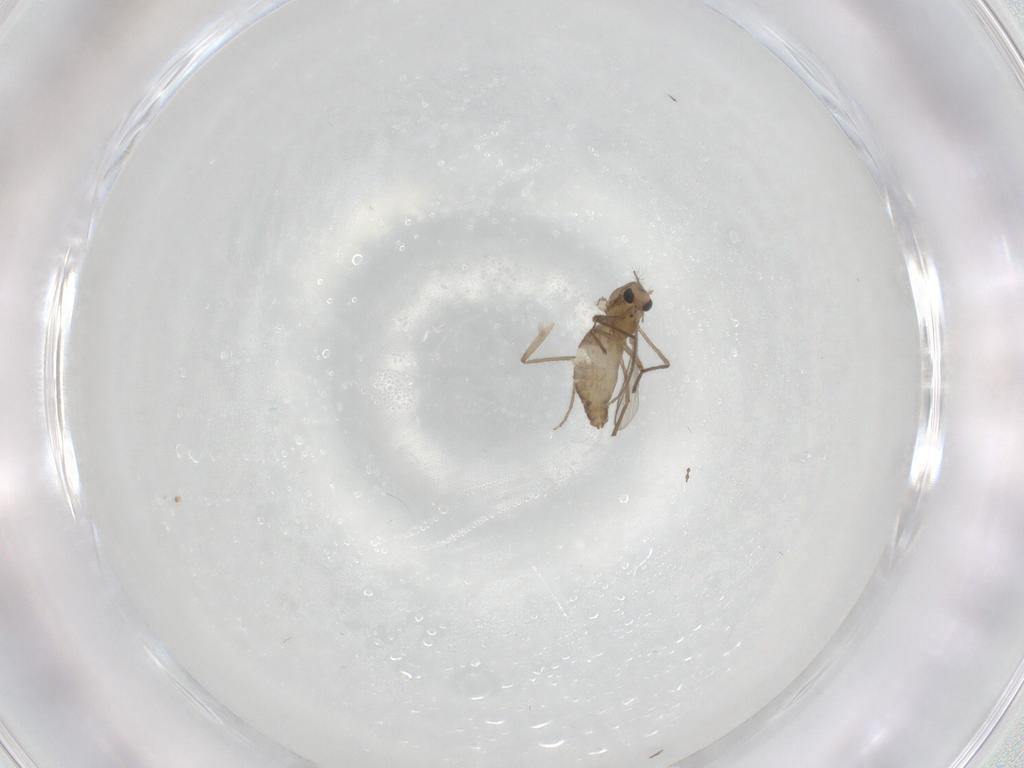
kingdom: Animalia
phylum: Arthropoda
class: Insecta
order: Diptera
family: Chironomidae
